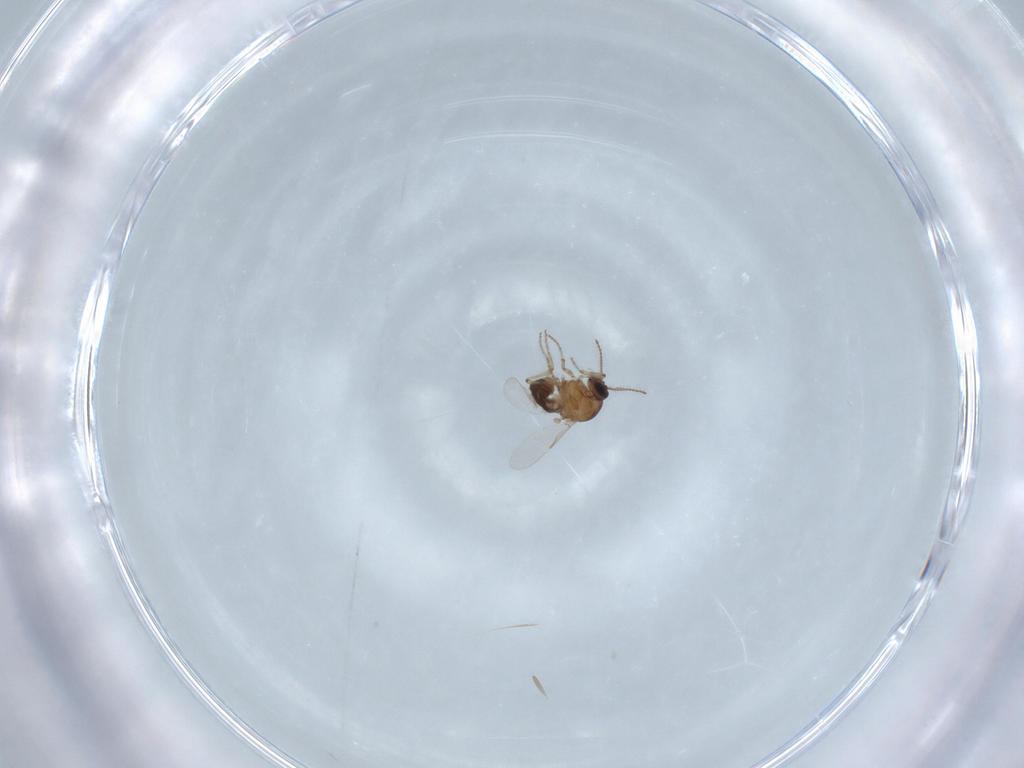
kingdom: Animalia
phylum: Arthropoda
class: Insecta
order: Diptera
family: Ceratopogonidae
